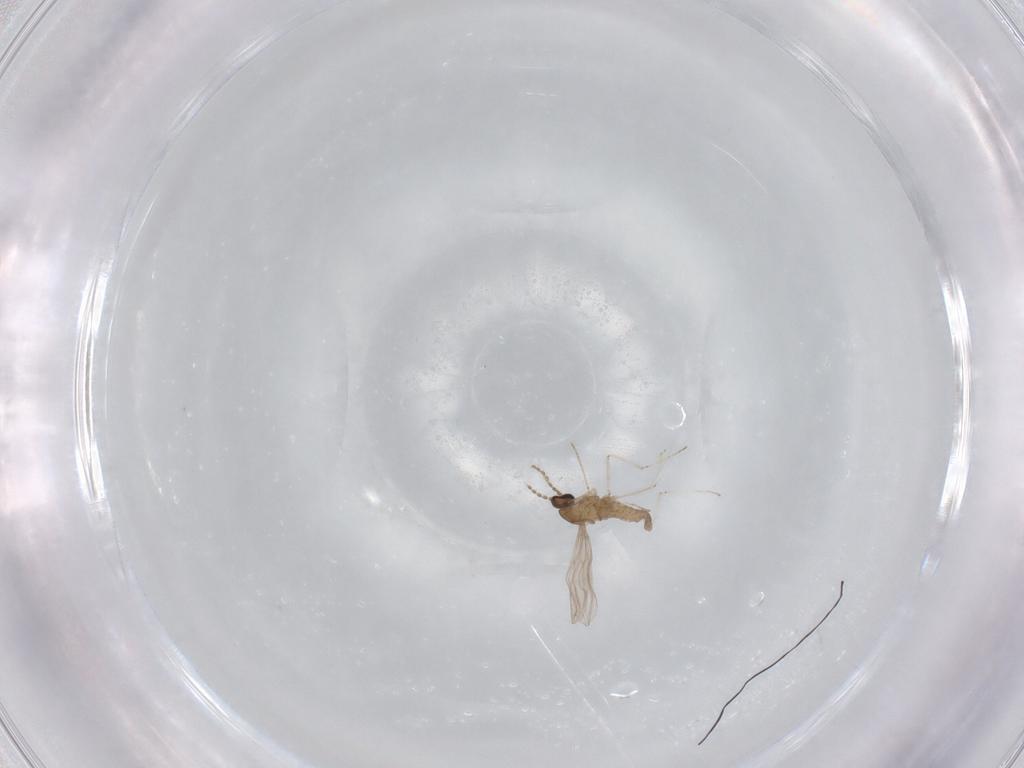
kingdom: Animalia
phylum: Arthropoda
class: Insecta
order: Diptera
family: Cecidomyiidae
